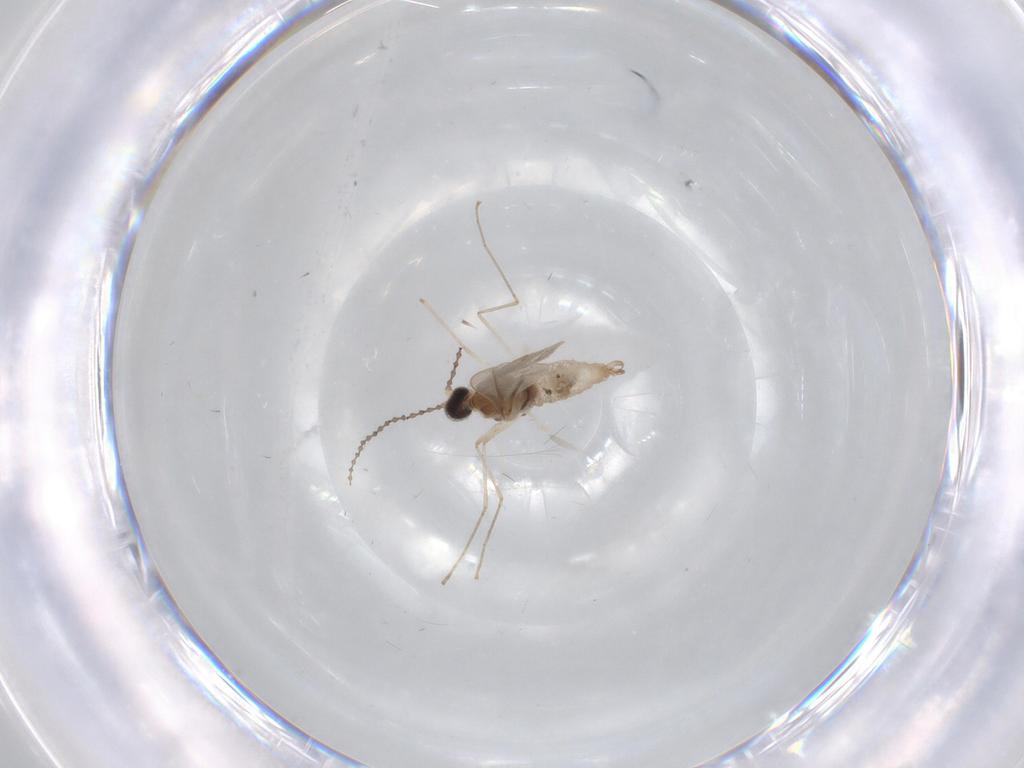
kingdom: Animalia
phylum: Arthropoda
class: Insecta
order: Diptera
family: Cecidomyiidae
